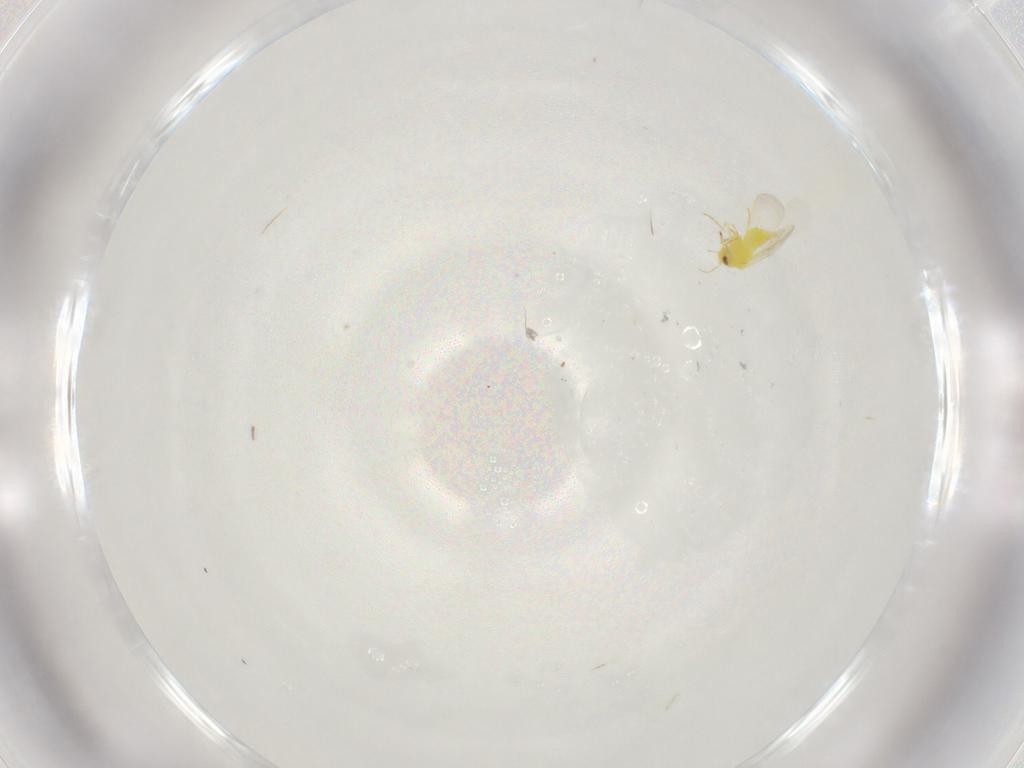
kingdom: Animalia
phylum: Arthropoda
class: Insecta
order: Hemiptera
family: Aleyrodidae
